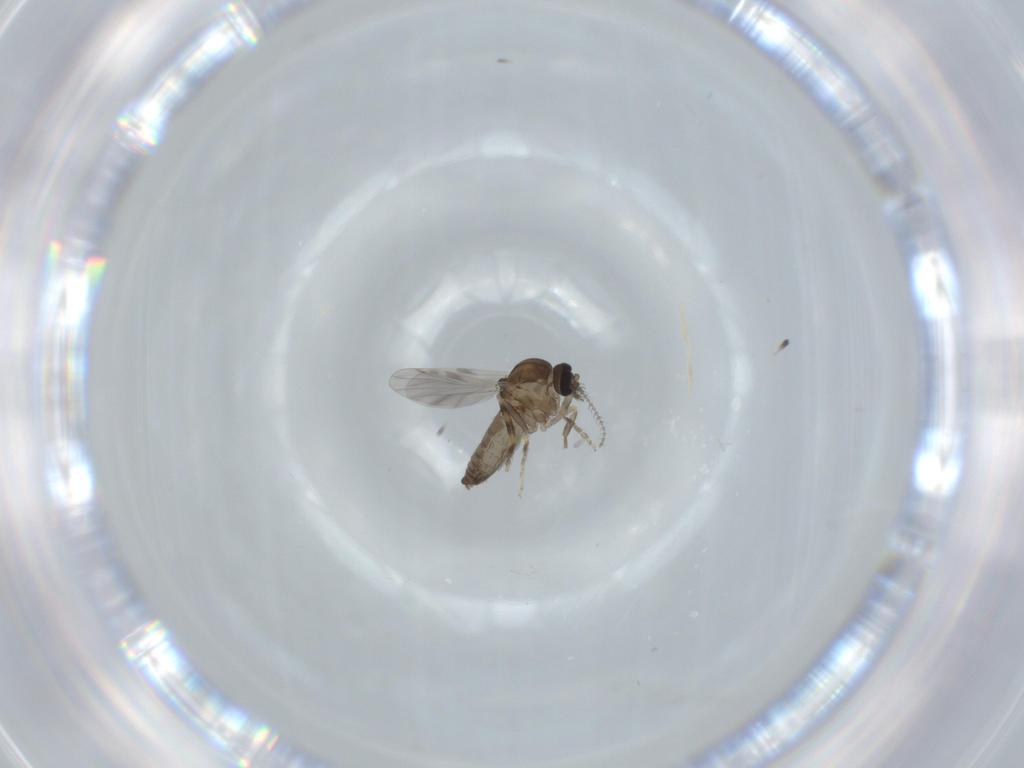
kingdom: Animalia
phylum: Arthropoda
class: Insecta
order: Diptera
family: Ceratopogonidae
